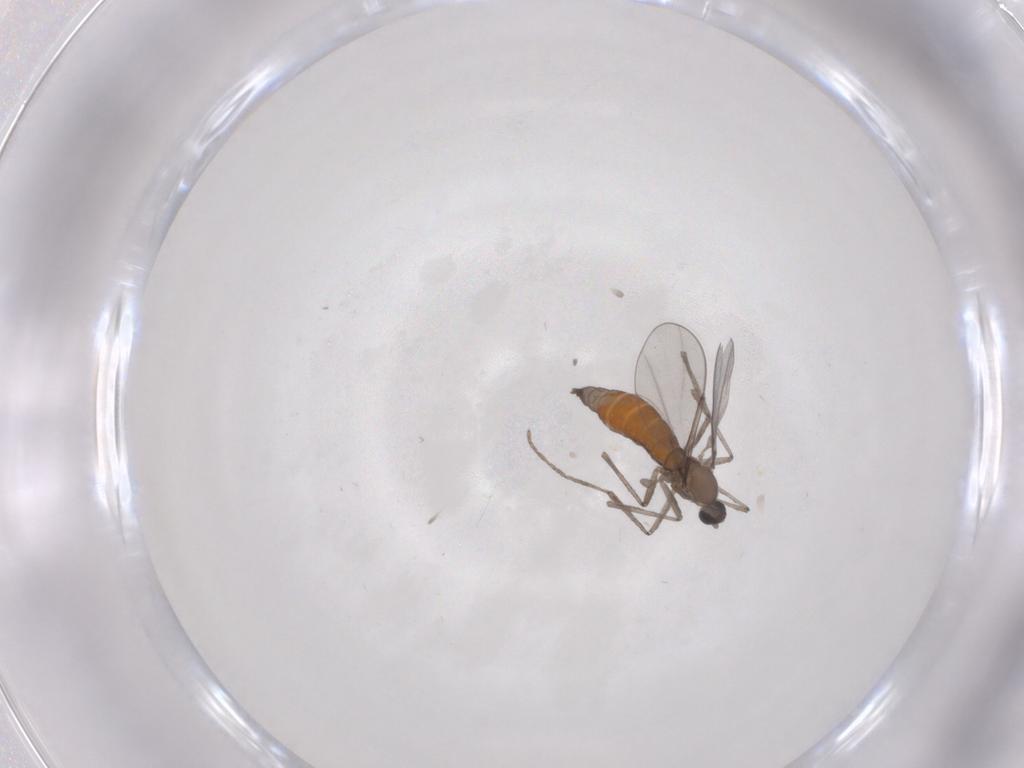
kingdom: Animalia
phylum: Arthropoda
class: Insecta
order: Diptera
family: Cecidomyiidae
